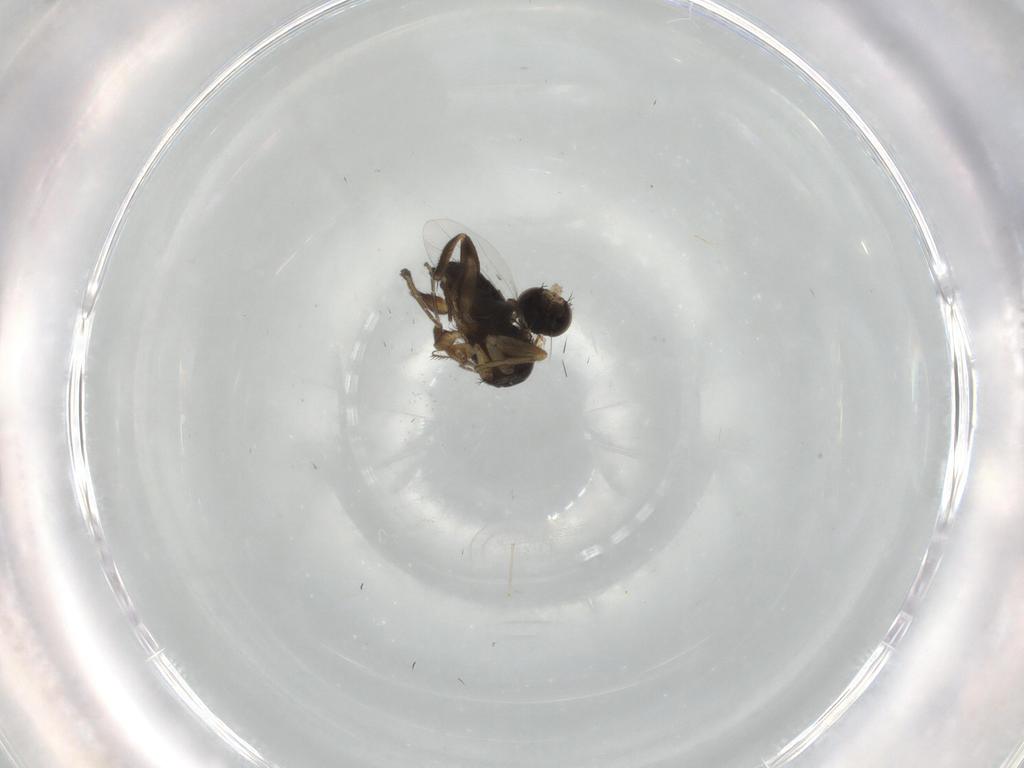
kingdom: Animalia
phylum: Arthropoda
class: Insecta
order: Diptera
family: Phoridae
